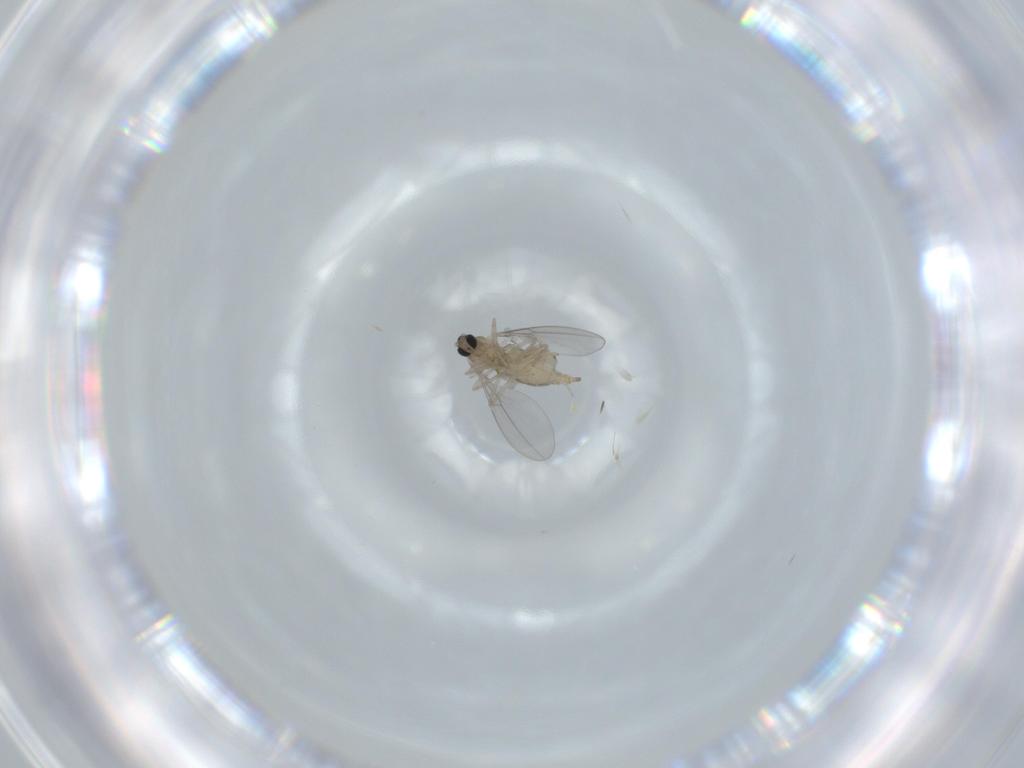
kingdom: Animalia
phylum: Arthropoda
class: Insecta
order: Diptera
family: Cecidomyiidae
